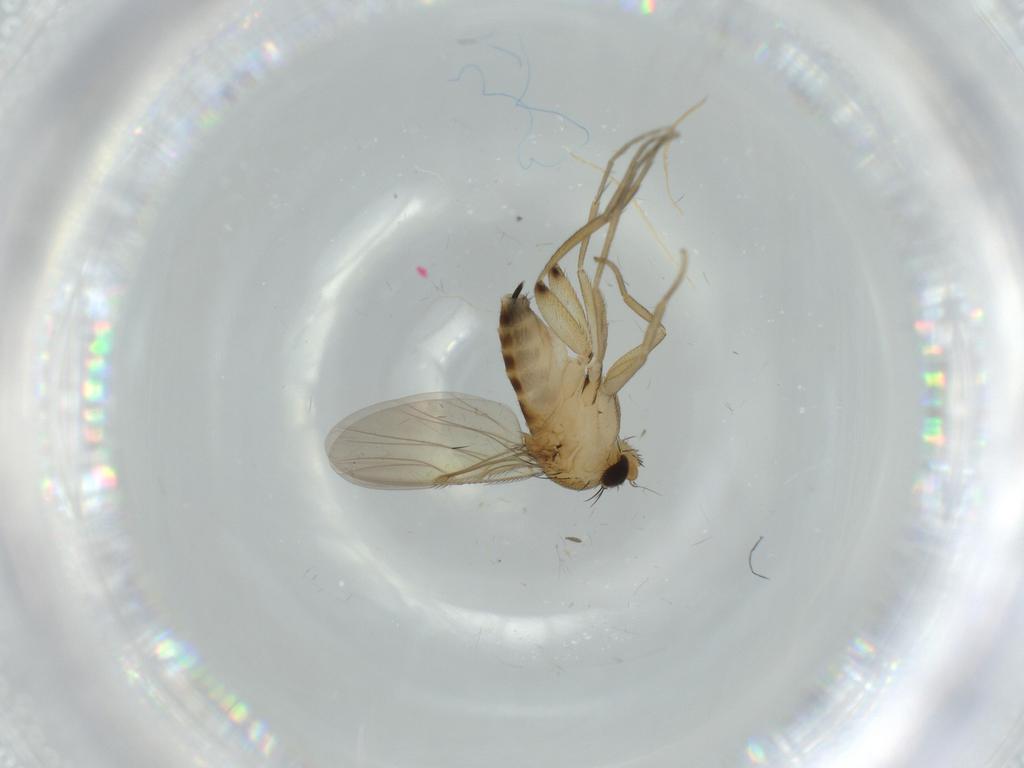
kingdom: Animalia
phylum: Arthropoda
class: Insecta
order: Diptera
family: Phoridae
